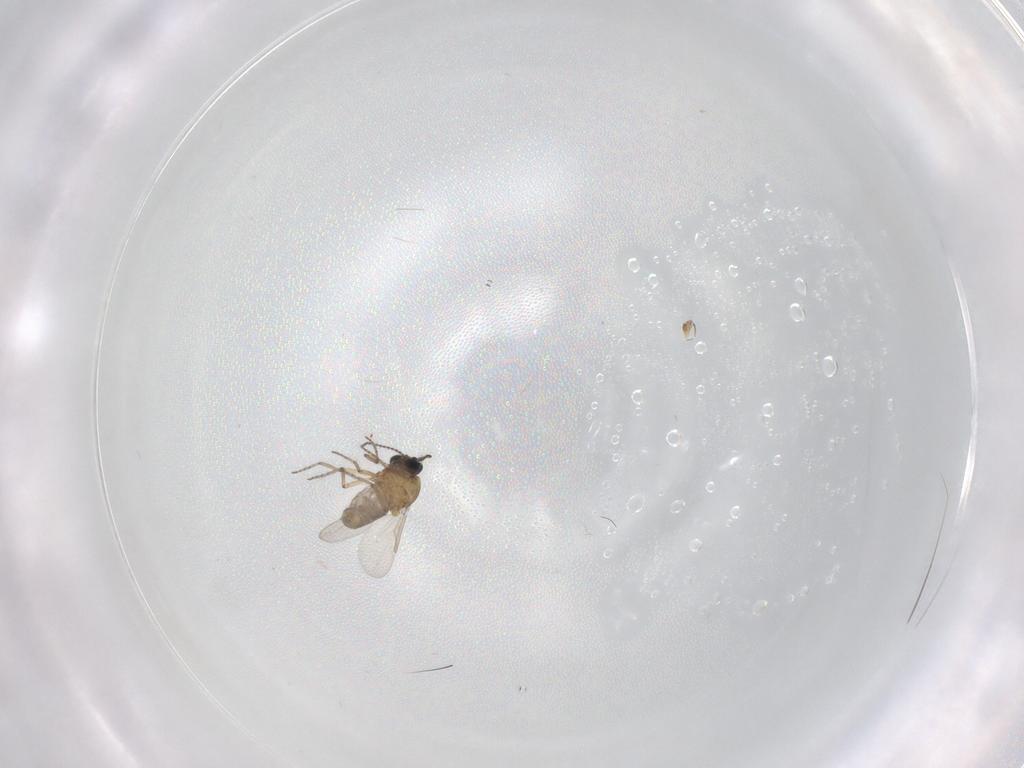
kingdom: Animalia
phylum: Arthropoda
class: Insecta
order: Diptera
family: Ceratopogonidae
